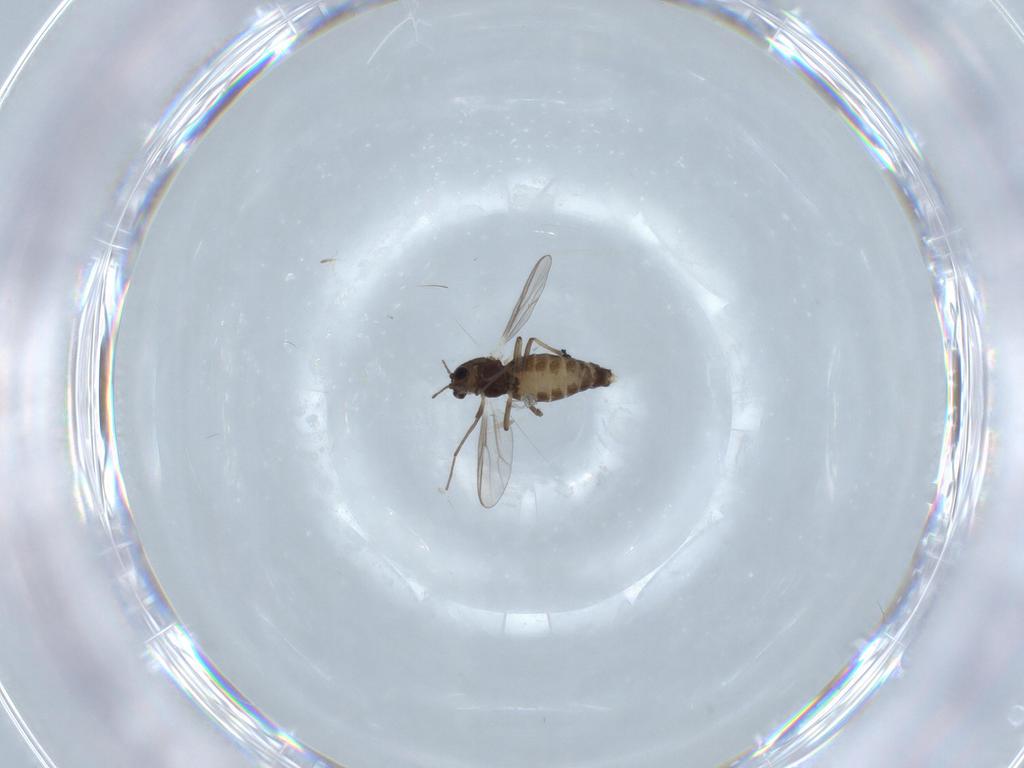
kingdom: Animalia
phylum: Arthropoda
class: Insecta
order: Diptera
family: Chironomidae
